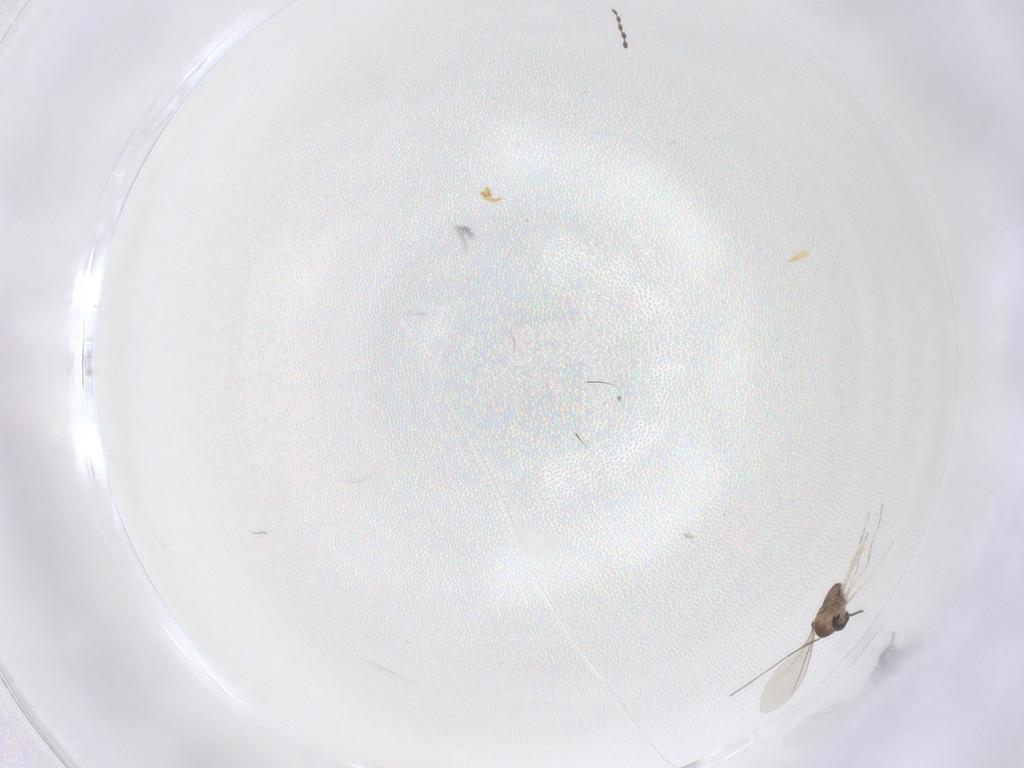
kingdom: Animalia
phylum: Arthropoda
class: Insecta
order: Diptera
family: Cecidomyiidae
